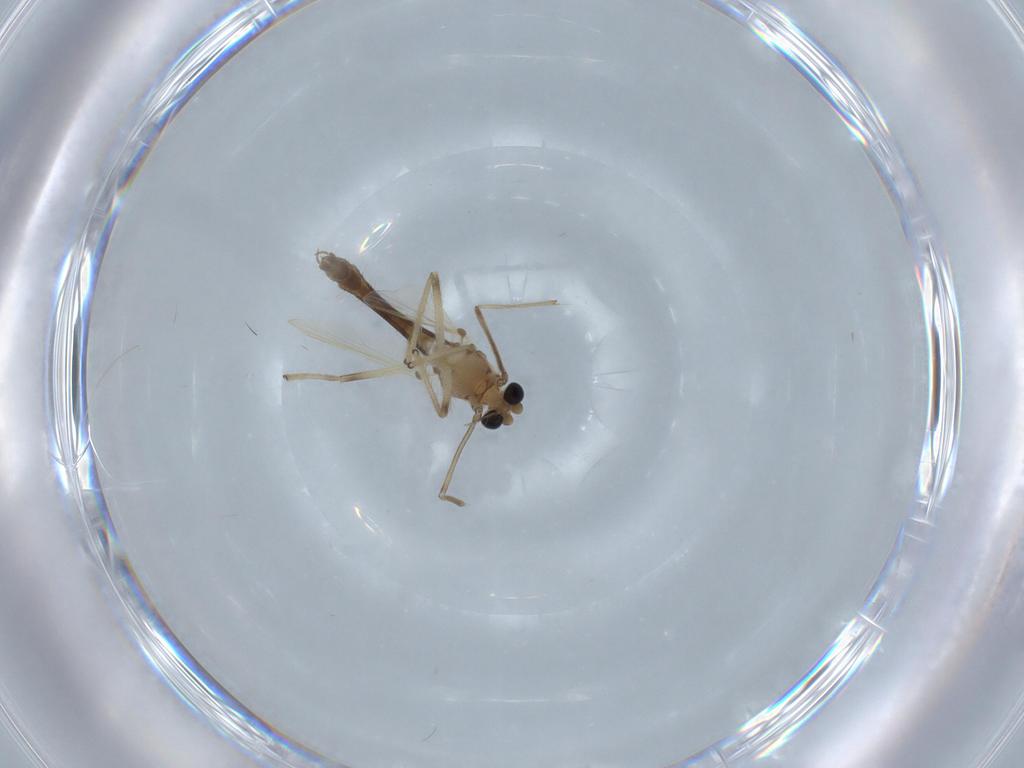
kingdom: Animalia
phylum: Arthropoda
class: Insecta
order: Diptera
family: Chironomidae
